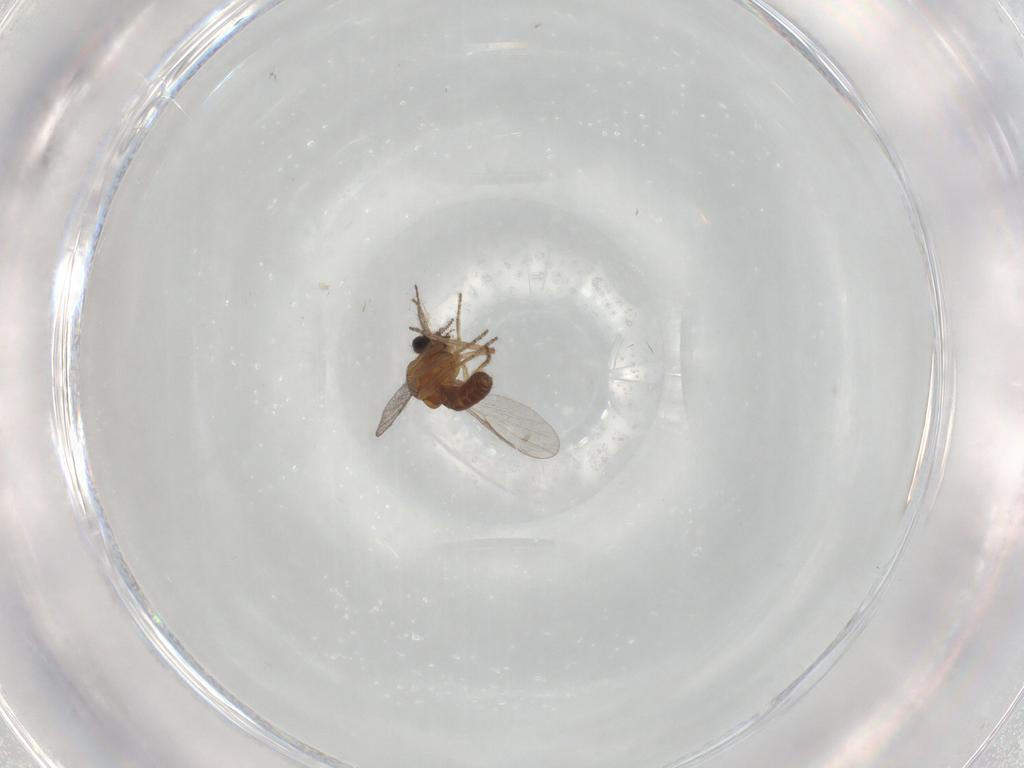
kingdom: Animalia
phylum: Arthropoda
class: Insecta
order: Diptera
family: Ceratopogonidae
